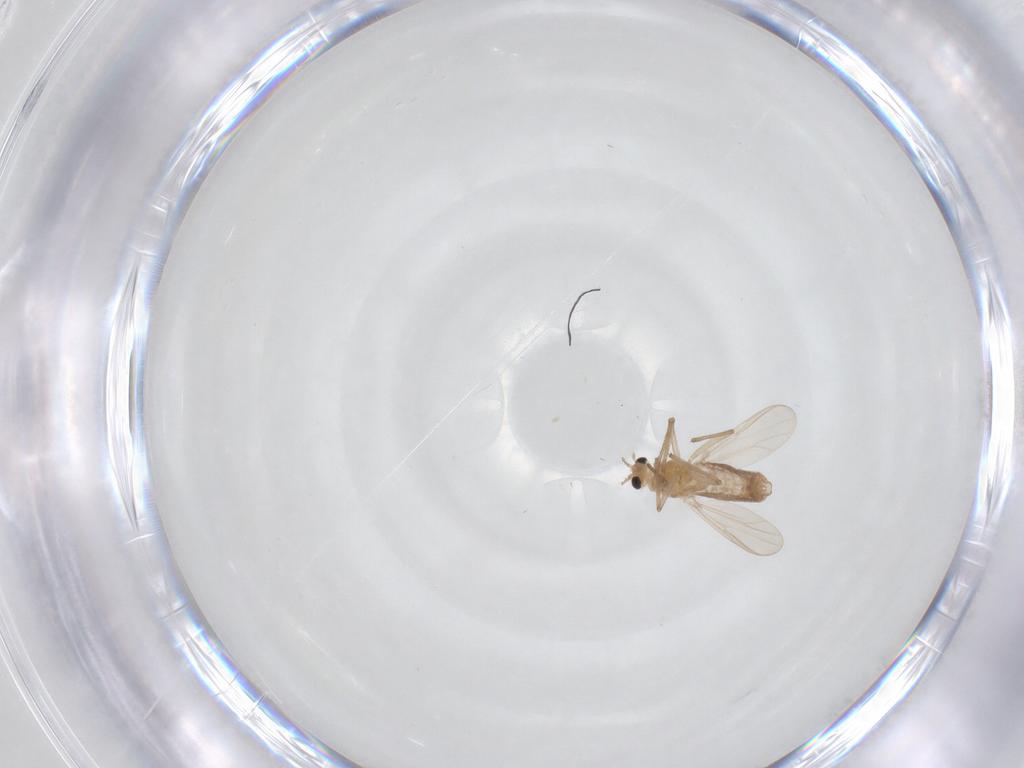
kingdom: Animalia
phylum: Arthropoda
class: Insecta
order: Diptera
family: Chironomidae
